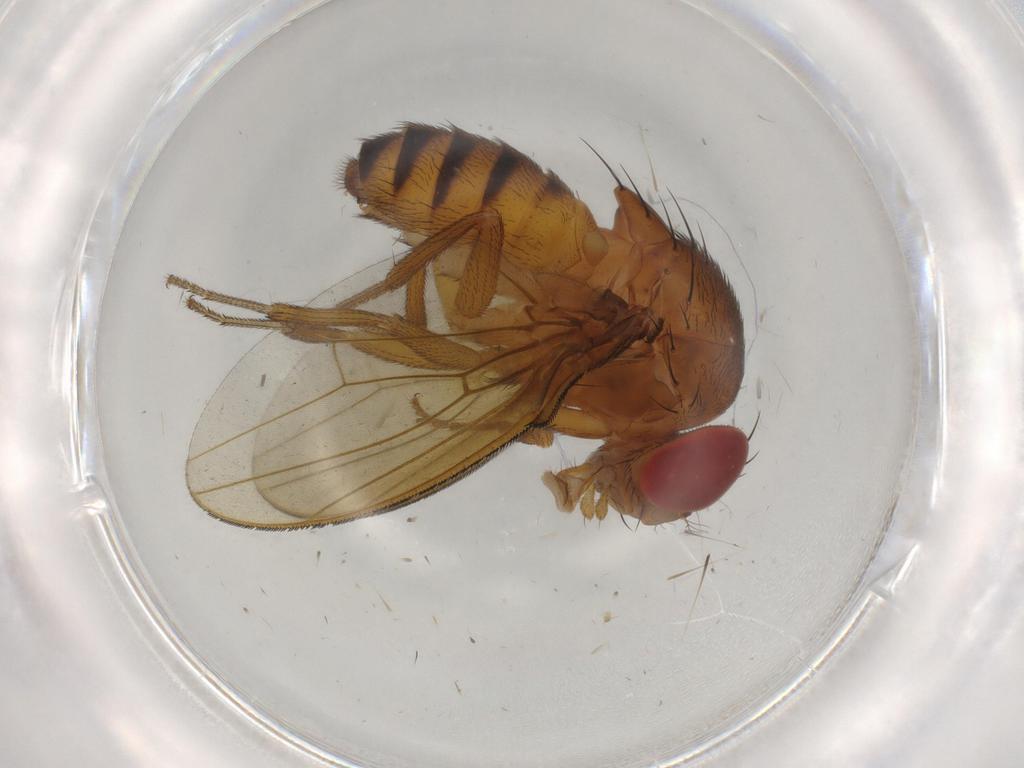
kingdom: Animalia
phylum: Arthropoda
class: Insecta
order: Diptera
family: Drosophilidae
